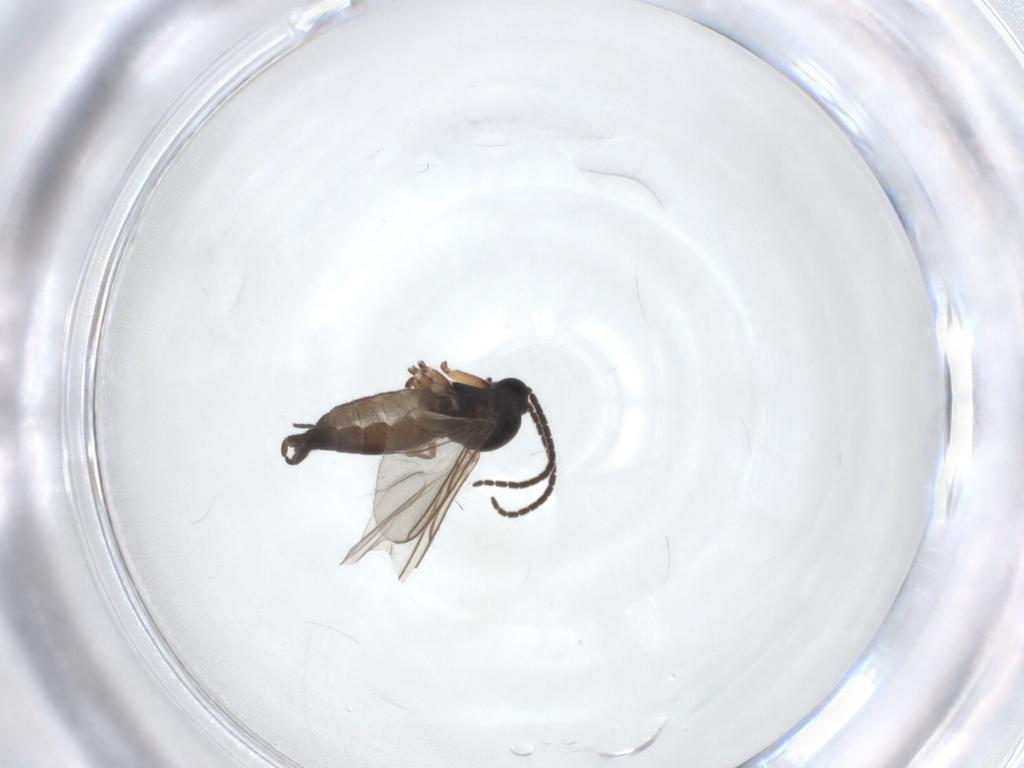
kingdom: Animalia
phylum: Arthropoda
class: Insecta
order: Diptera
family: Sciaridae
